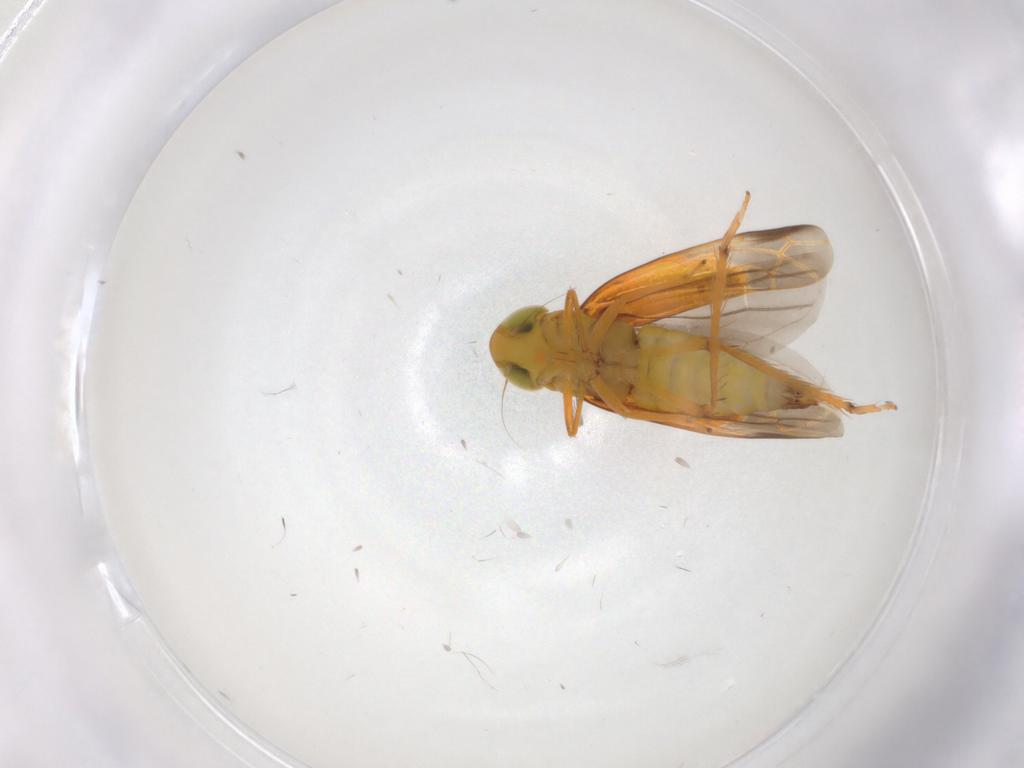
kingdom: Animalia
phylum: Arthropoda
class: Insecta
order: Hemiptera
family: Cicadellidae
